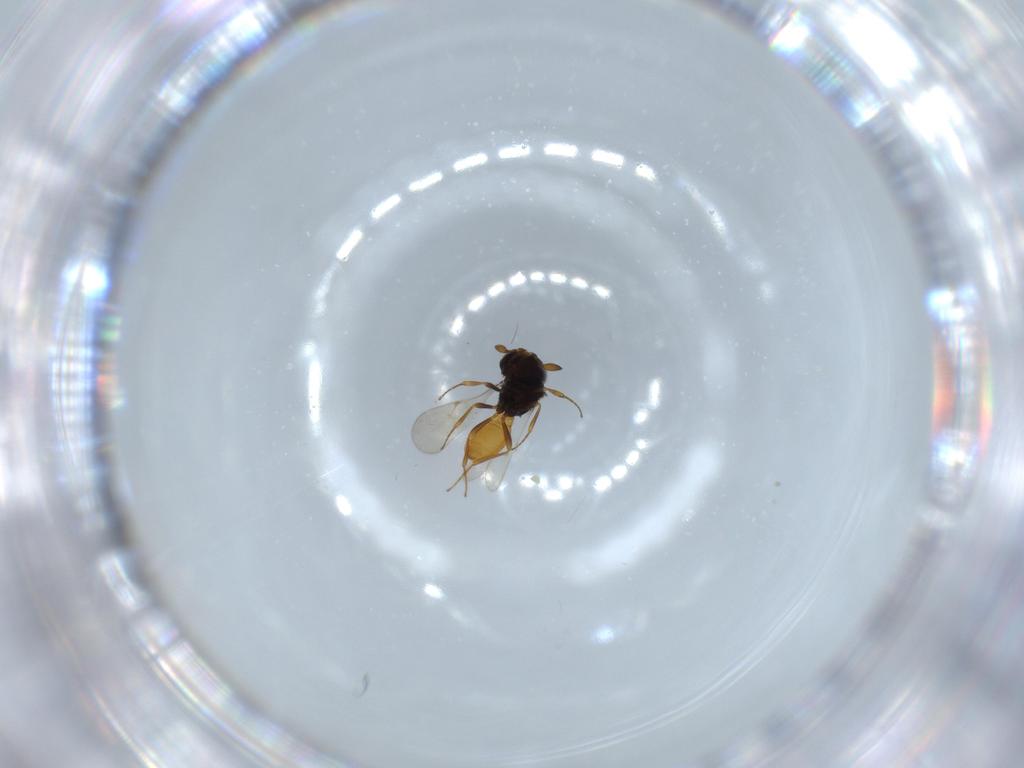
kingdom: Animalia
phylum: Arthropoda
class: Insecta
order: Hymenoptera
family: Scelionidae
